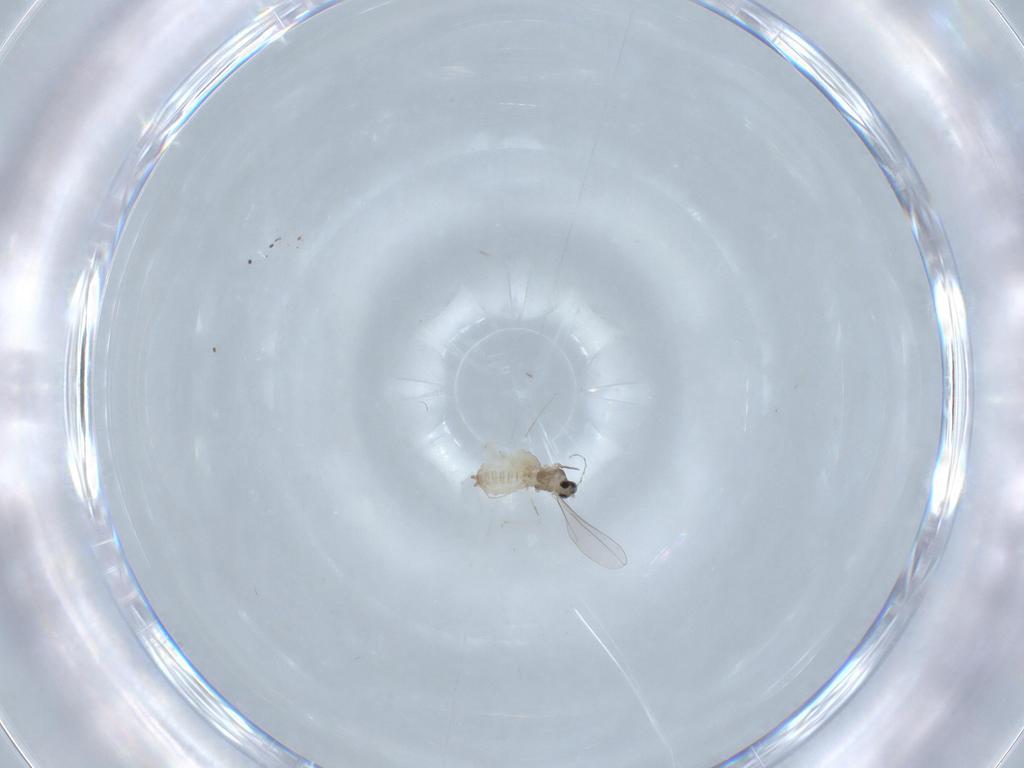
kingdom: Animalia
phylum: Arthropoda
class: Insecta
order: Diptera
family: Cecidomyiidae
